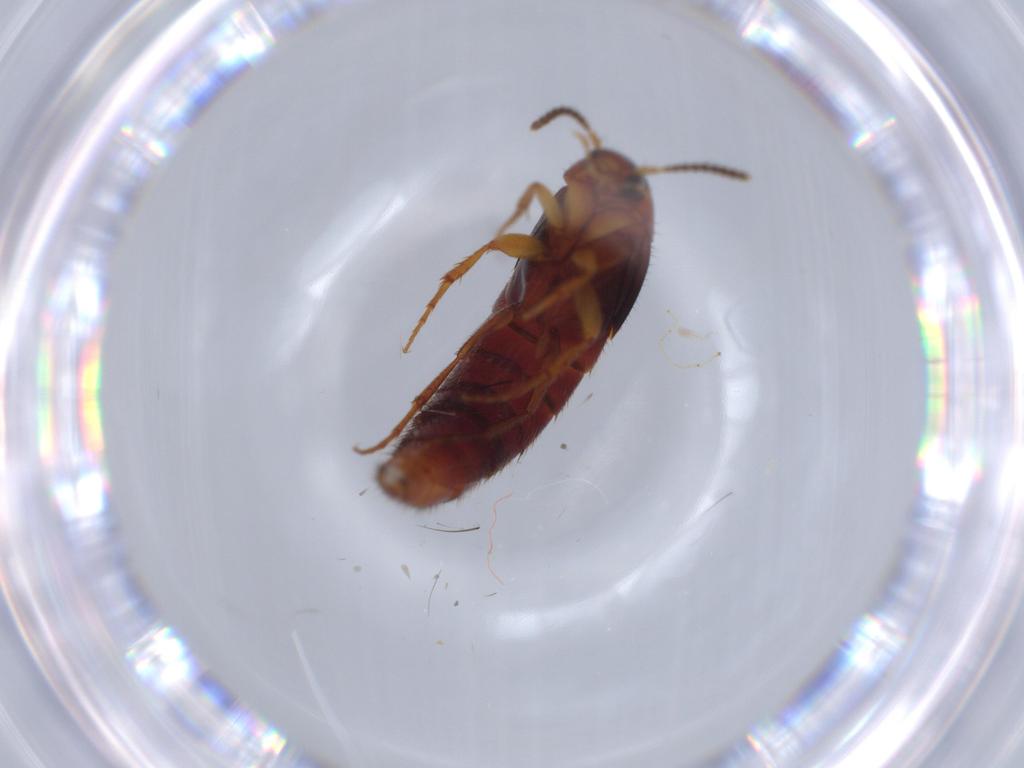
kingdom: Animalia
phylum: Arthropoda
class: Insecta
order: Coleoptera
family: Staphylinidae
